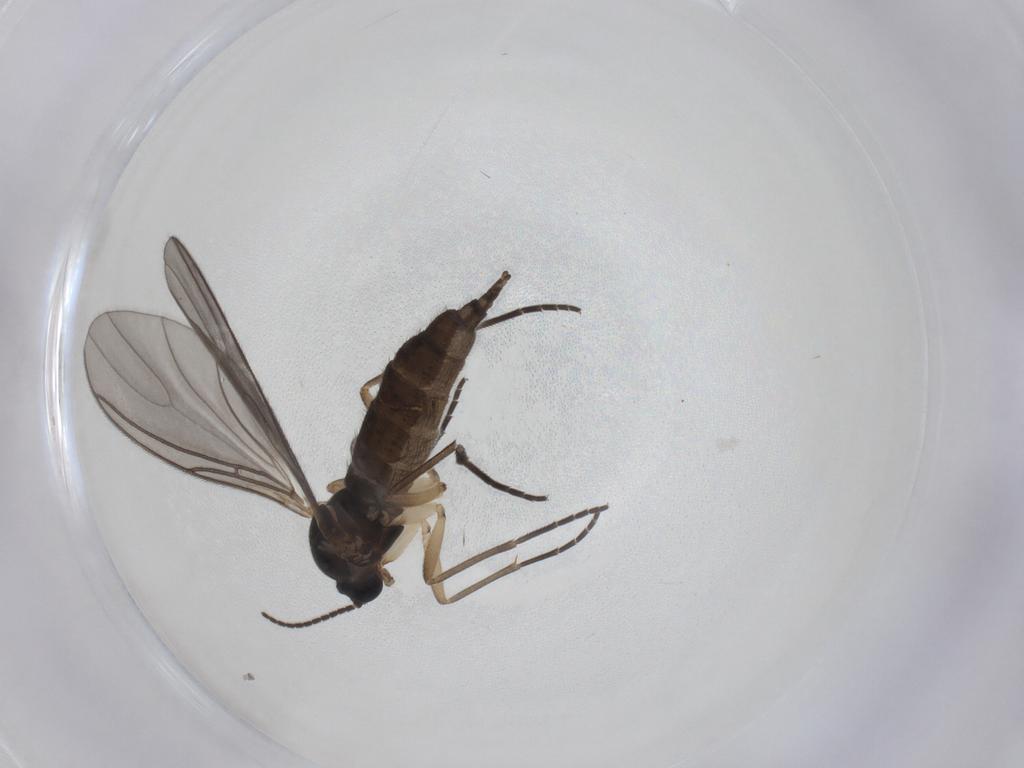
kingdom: Animalia
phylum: Arthropoda
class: Insecta
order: Diptera
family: Sciaridae
